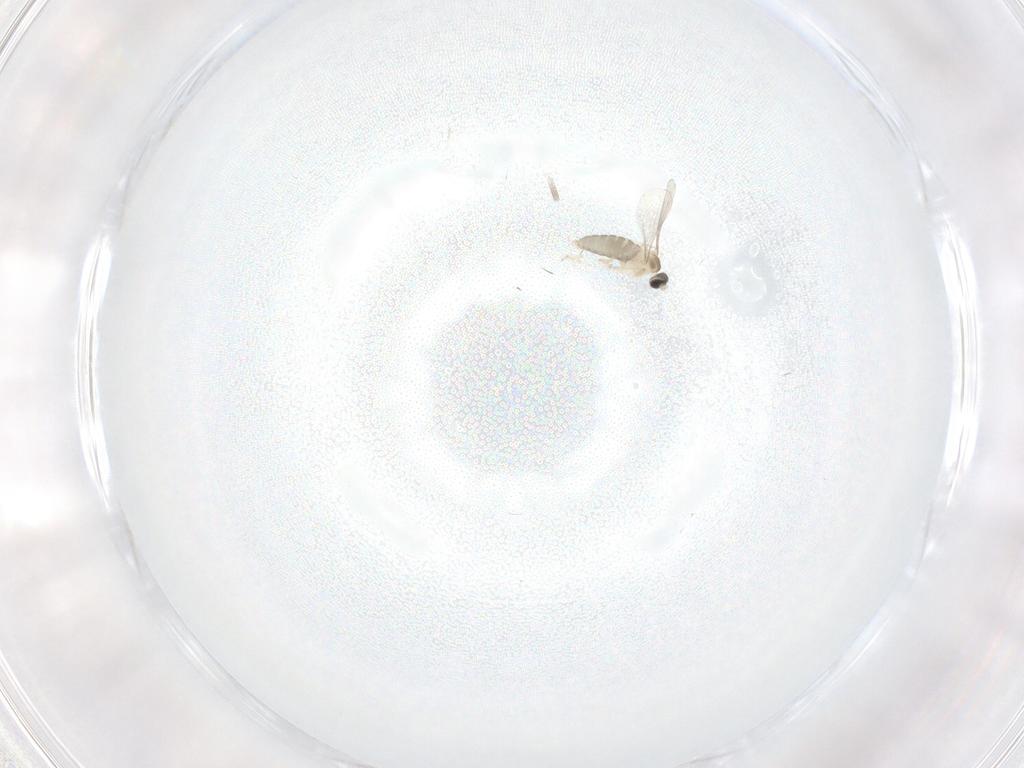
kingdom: Animalia
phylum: Arthropoda
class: Insecta
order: Diptera
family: Cecidomyiidae
